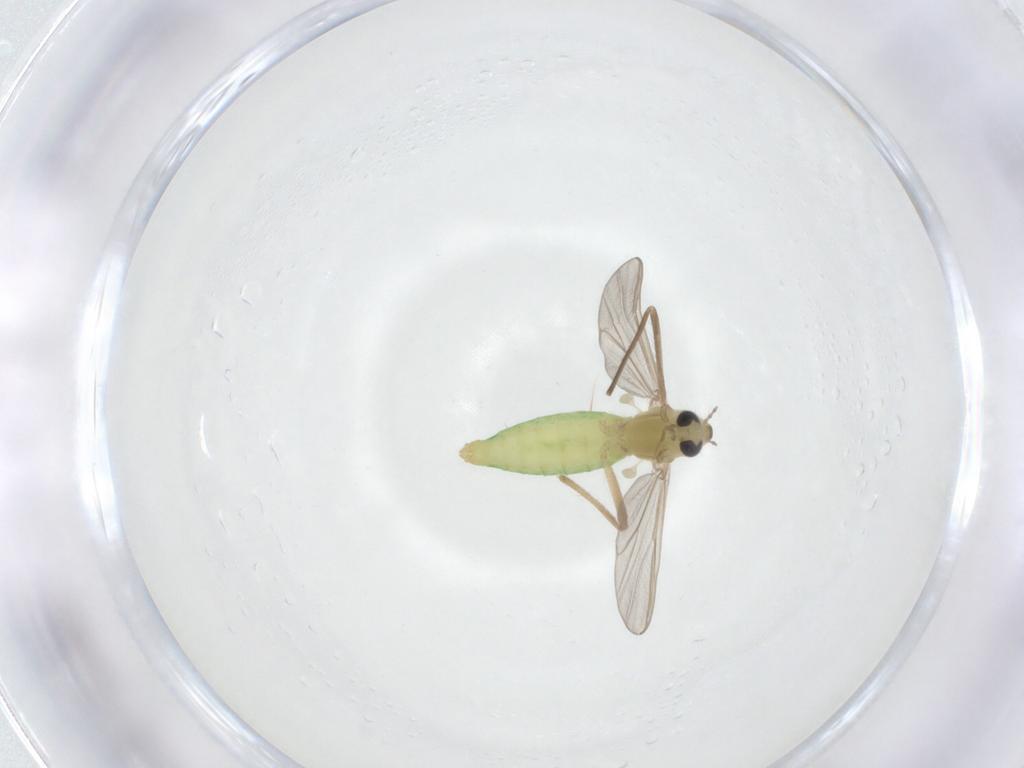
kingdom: Animalia
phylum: Arthropoda
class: Insecta
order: Diptera
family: Chironomidae
